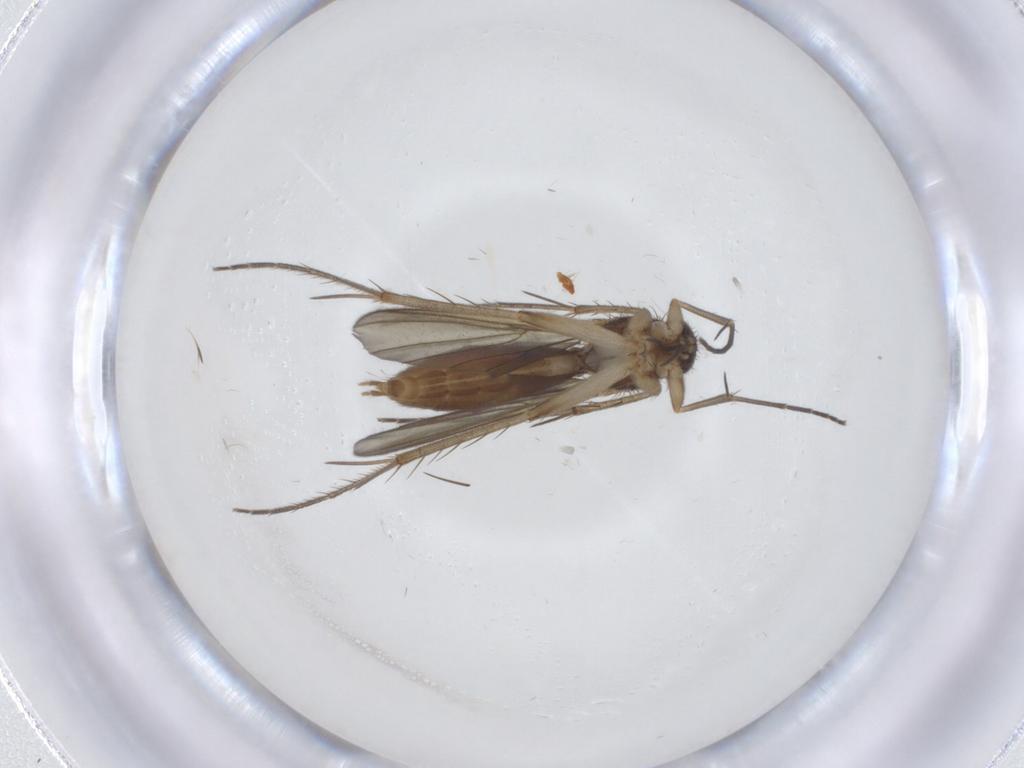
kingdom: Animalia
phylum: Arthropoda
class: Insecta
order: Diptera
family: Mycetophilidae
